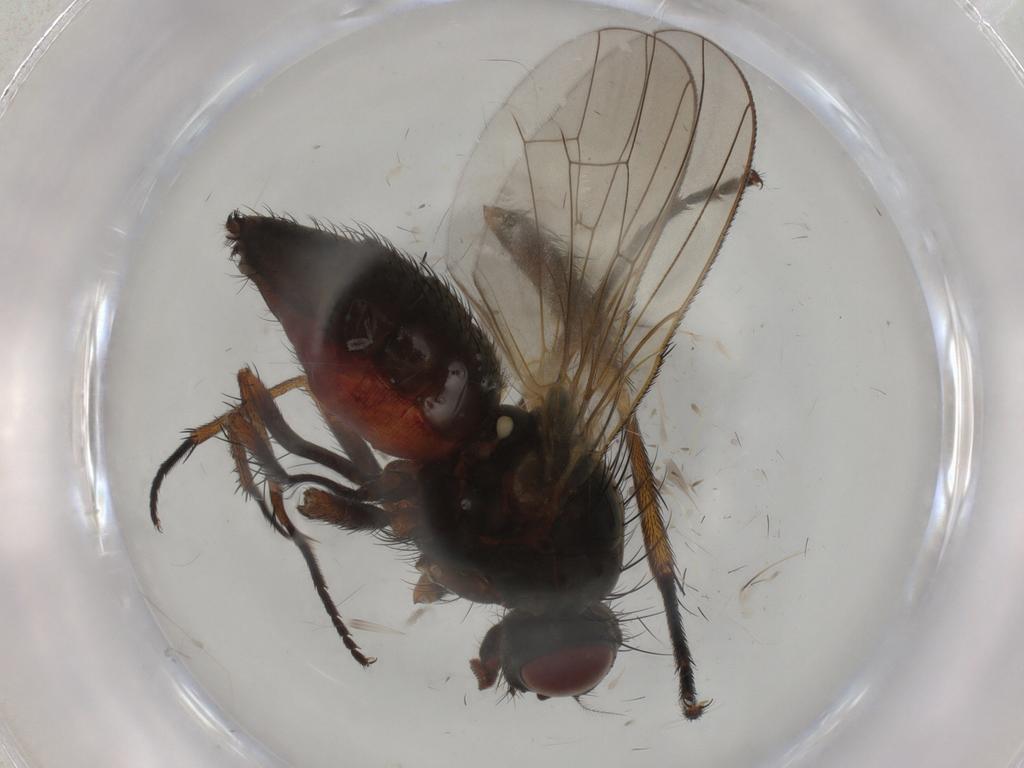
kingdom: Animalia
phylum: Arthropoda
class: Insecta
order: Diptera
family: Anthomyiidae
